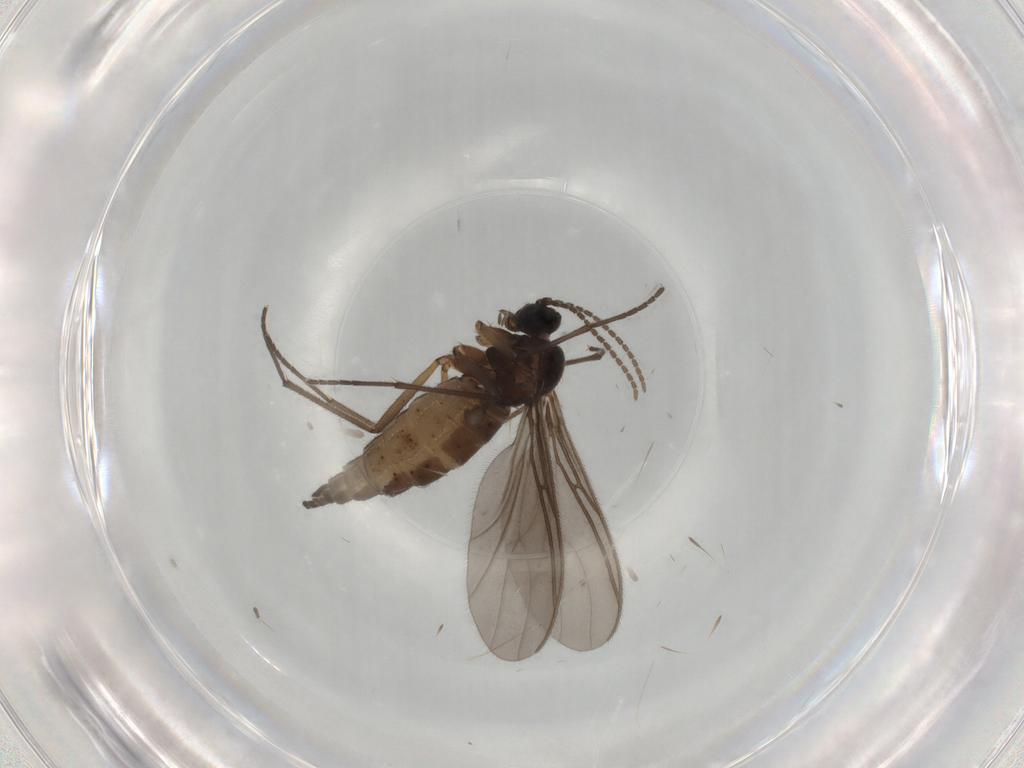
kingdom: Animalia
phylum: Arthropoda
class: Insecta
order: Diptera
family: Sciaridae
